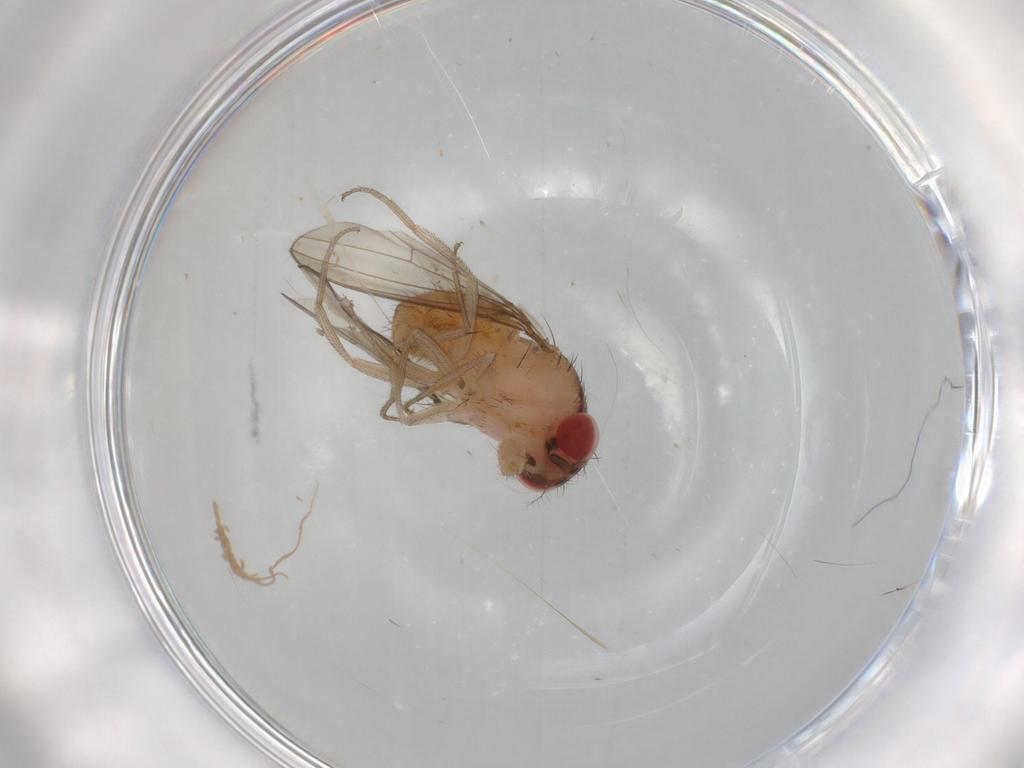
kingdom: Animalia
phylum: Arthropoda
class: Insecta
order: Diptera
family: Drosophilidae
